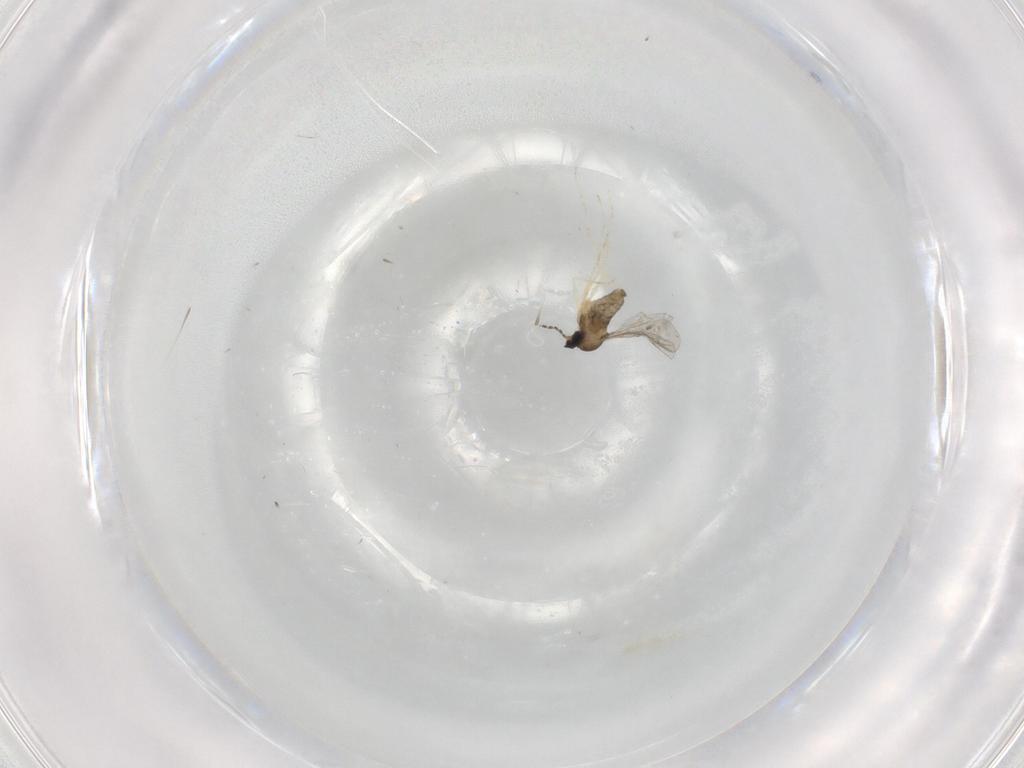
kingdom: Animalia
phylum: Arthropoda
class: Insecta
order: Diptera
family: Cecidomyiidae
